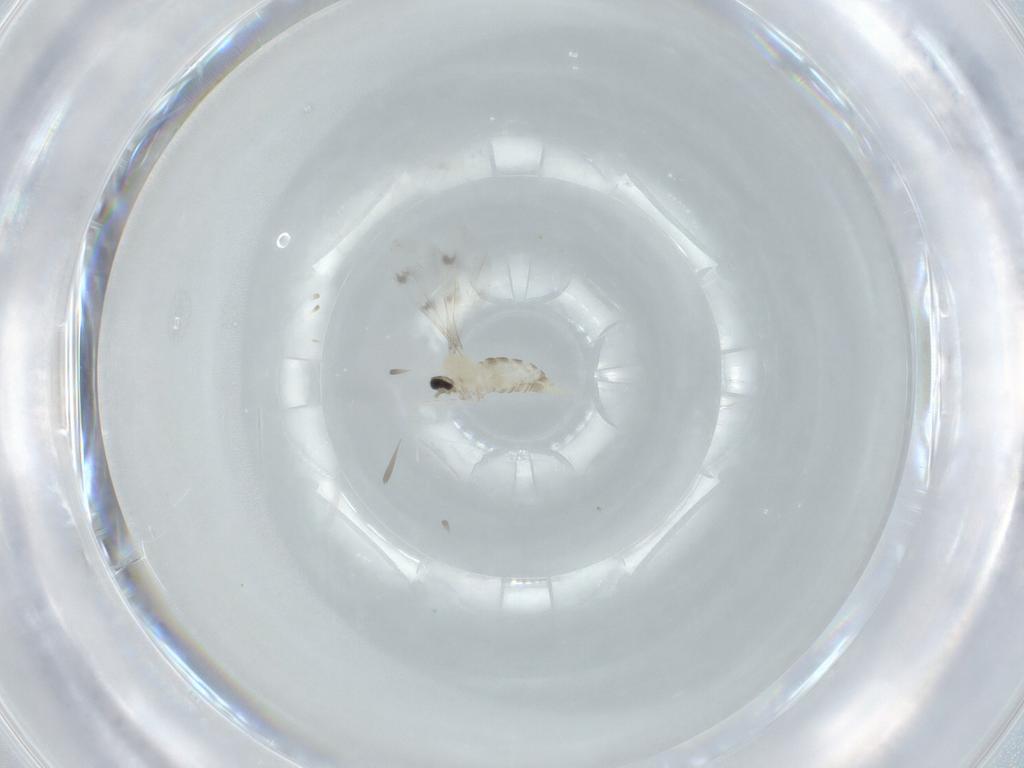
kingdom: Animalia
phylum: Arthropoda
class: Insecta
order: Diptera
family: Cecidomyiidae
